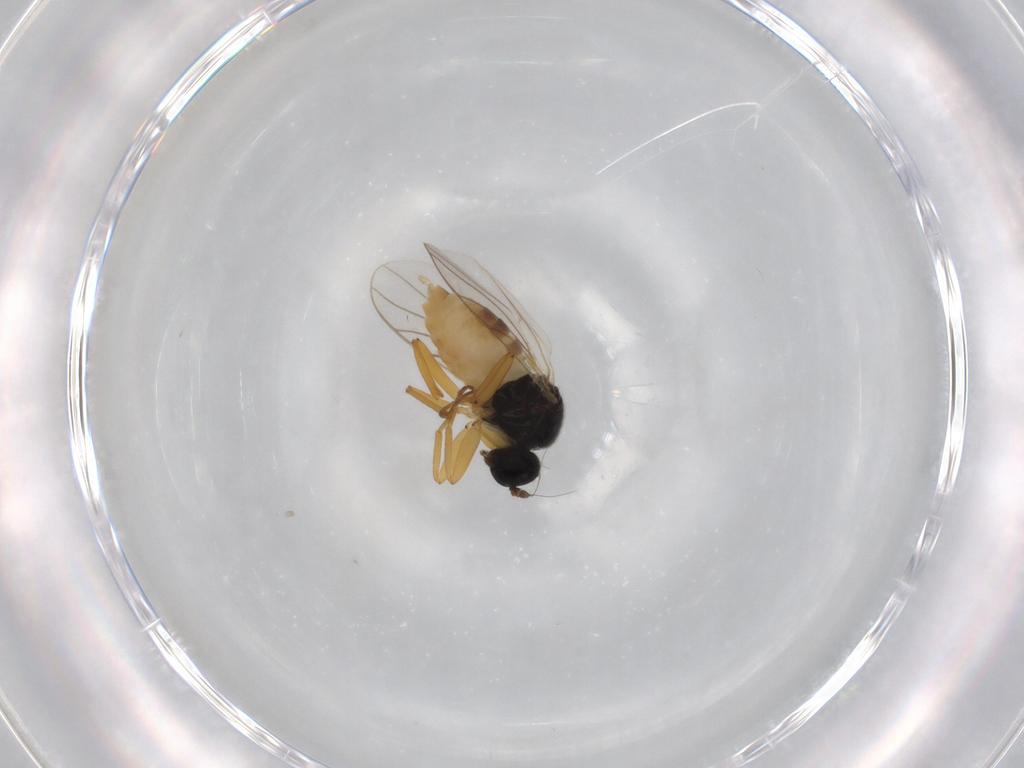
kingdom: Animalia
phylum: Arthropoda
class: Insecta
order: Diptera
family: Hybotidae
